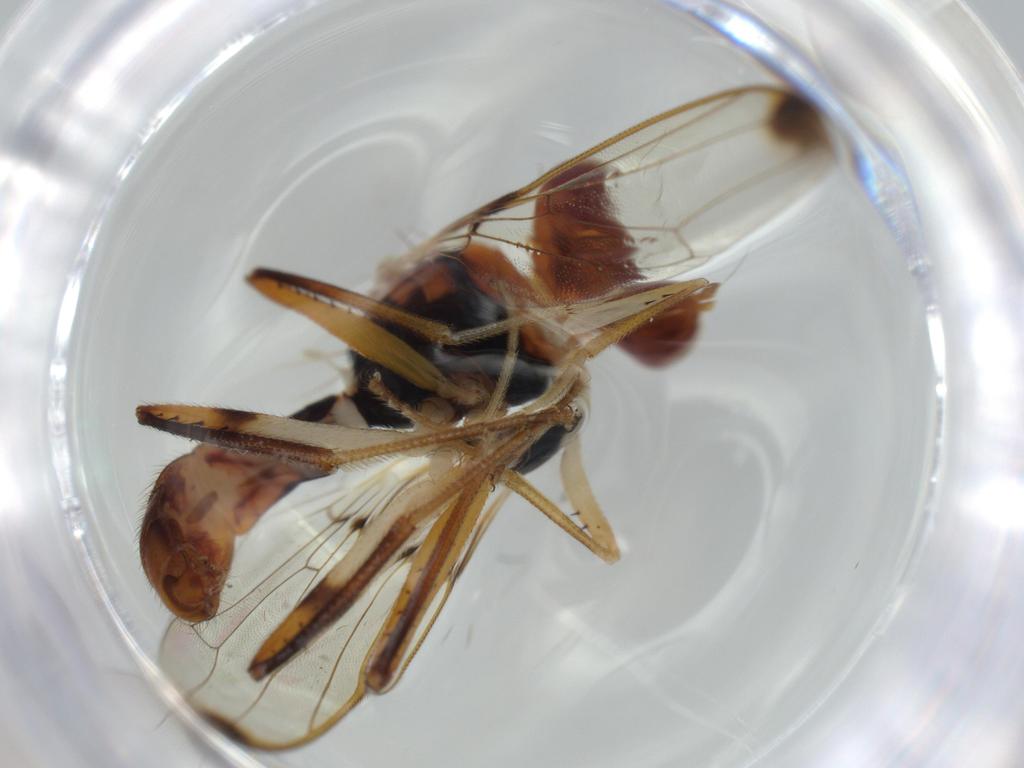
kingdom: Animalia
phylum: Arthropoda
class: Insecta
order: Diptera
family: Richardiidae
